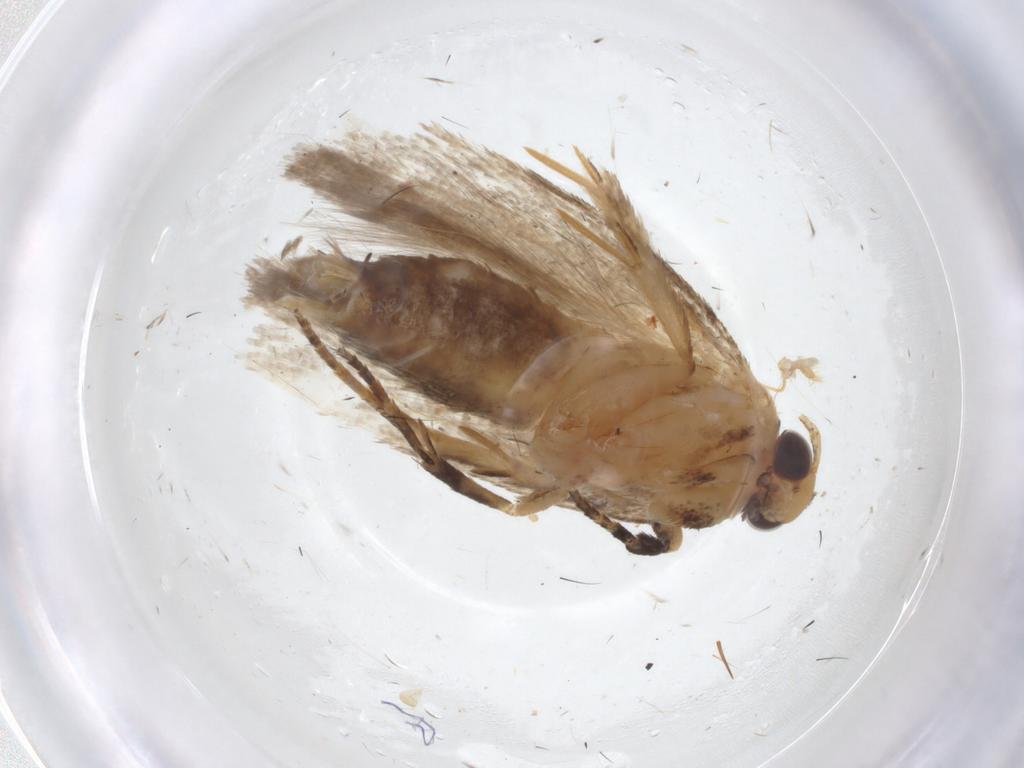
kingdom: Animalia
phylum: Arthropoda
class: Insecta
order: Lepidoptera
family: Gelechiidae
